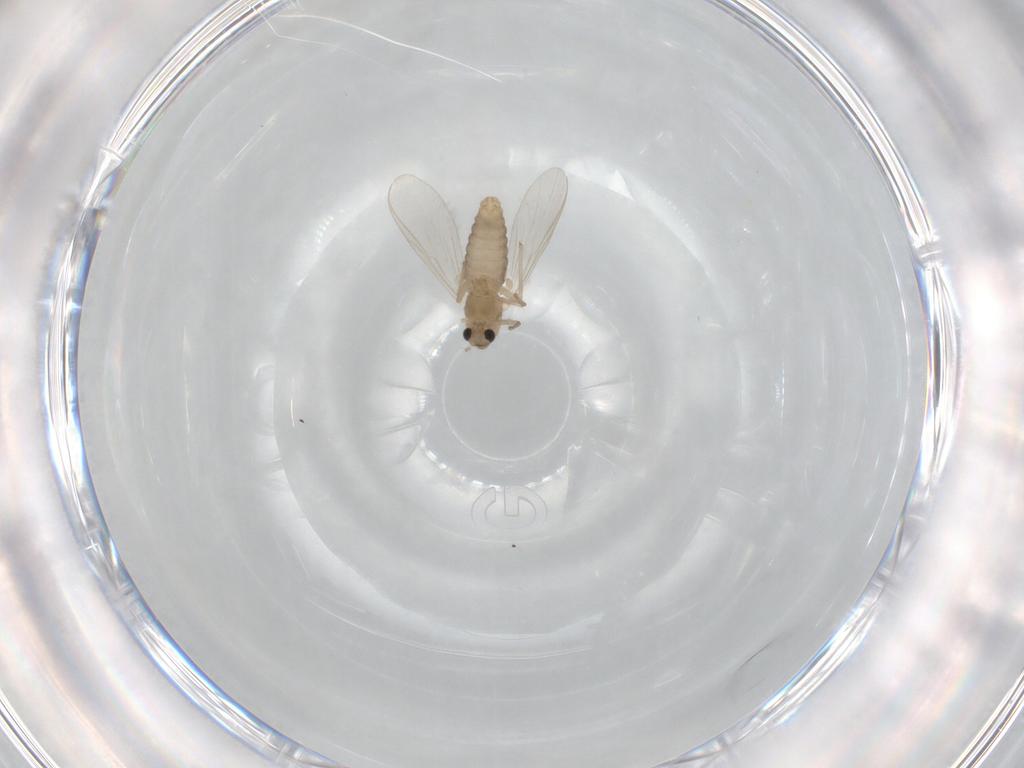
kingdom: Animalia
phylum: Arthropoda
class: Insecta
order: Diptera
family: Chironomidae
